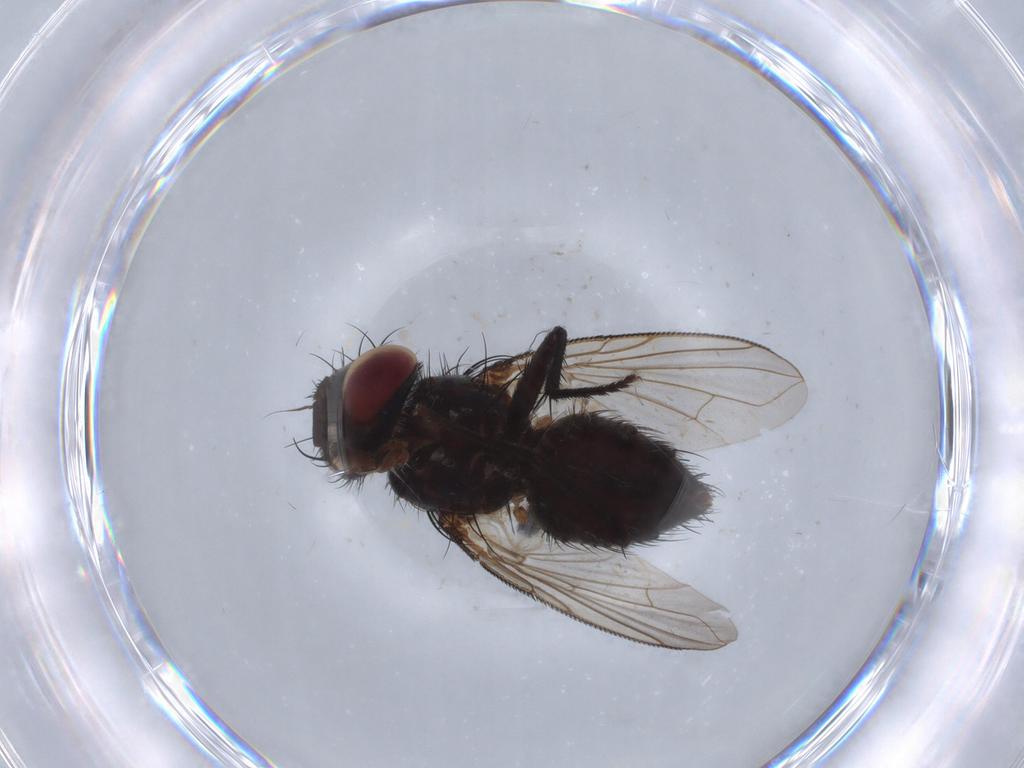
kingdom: Animalia
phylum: Arthropoda
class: Insecta
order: Diptera
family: Tachinidae
